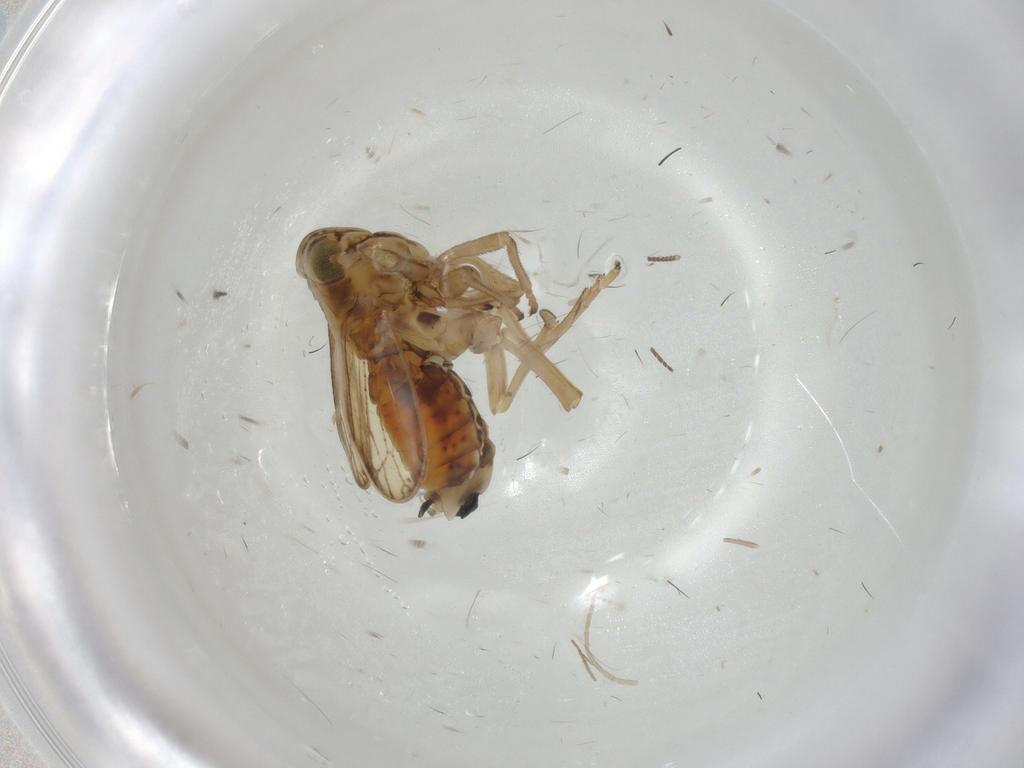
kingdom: Animalia
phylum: Arthropoda
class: Insecta
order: Hemiptera
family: Delphacidae
